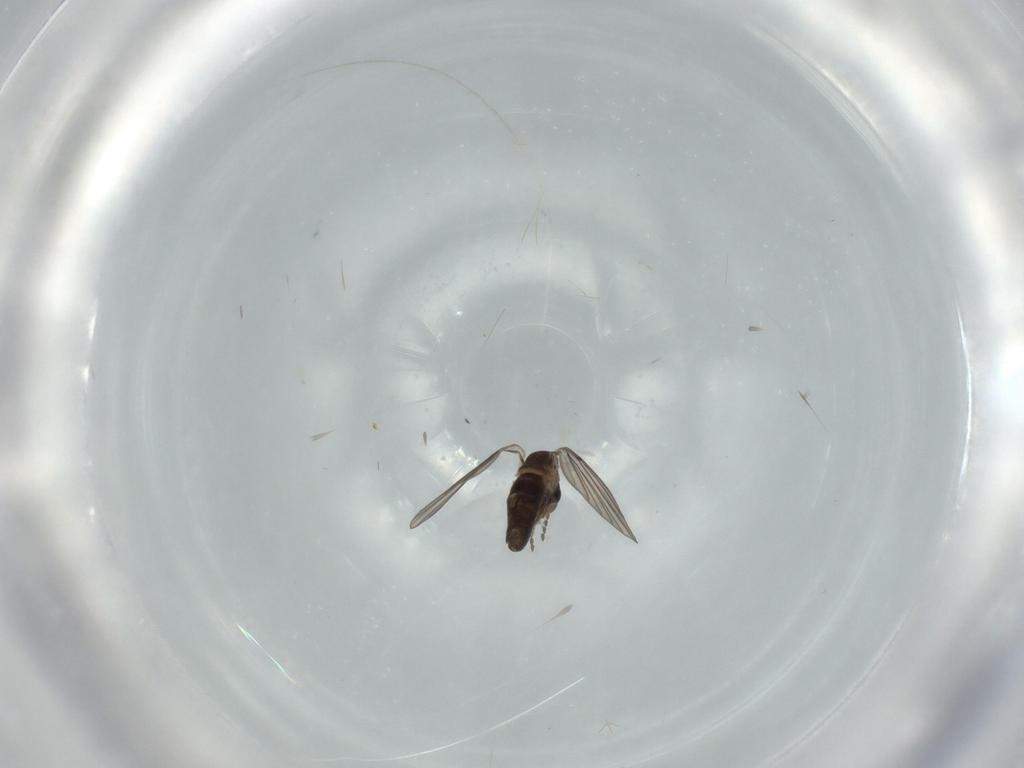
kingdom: Animalia
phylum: Arthropoda
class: Insecta
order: Diptera
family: Psychodidae
